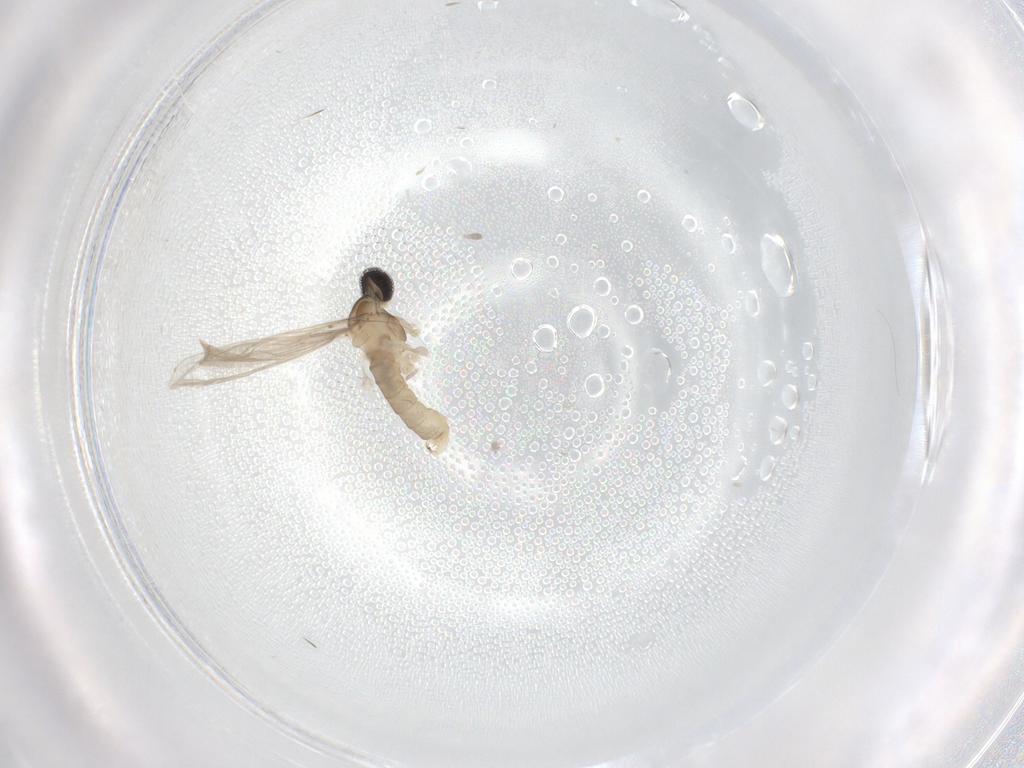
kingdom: Animalia
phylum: Arthropoda
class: Insecta
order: Diptera
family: Cecidomyiidae
